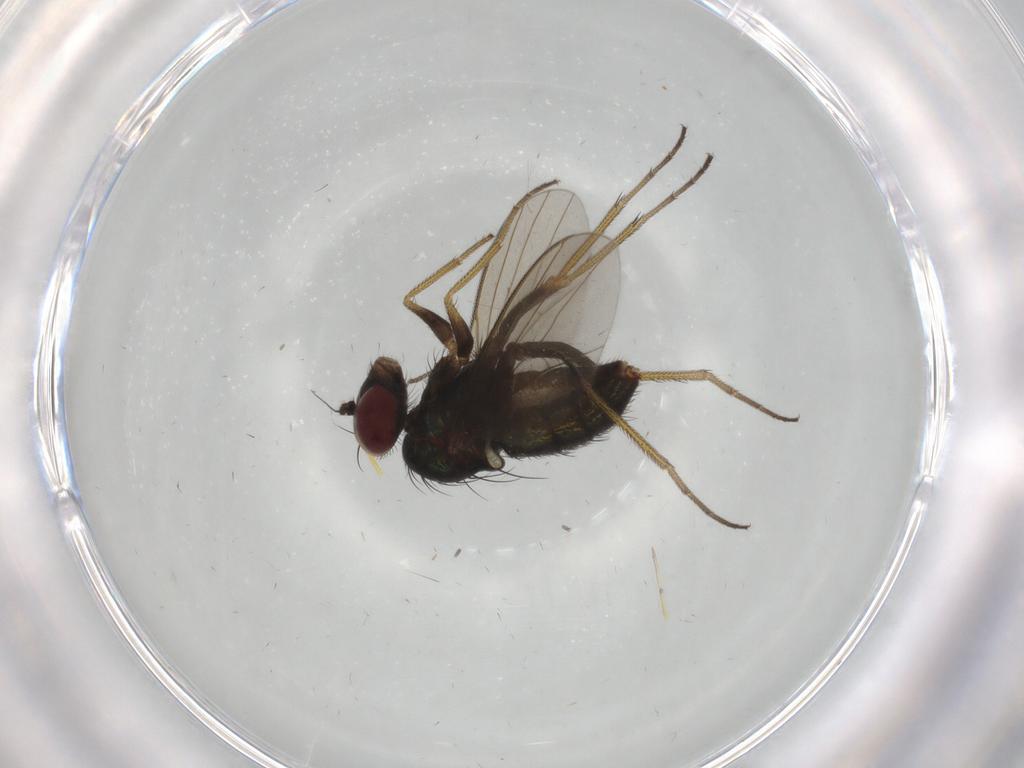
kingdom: Animalia
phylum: Arthropoda
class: Insecta
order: Diptera
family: Dolichopodidae
